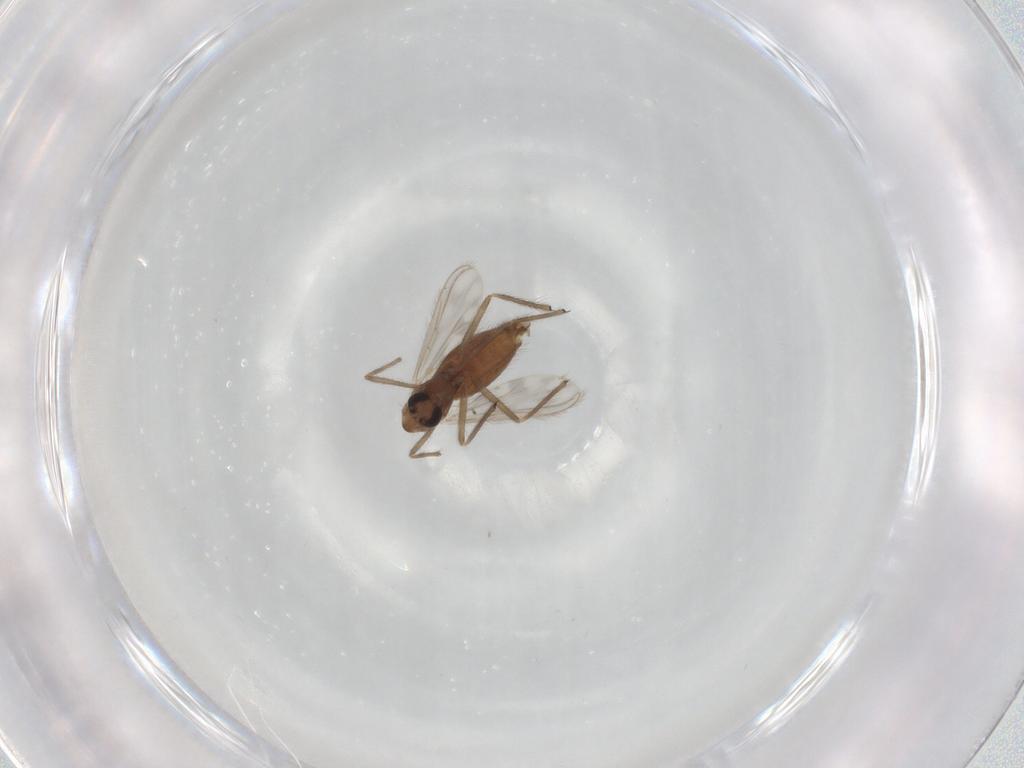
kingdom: Animalia
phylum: Arthropoda
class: Insecta
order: Diptera
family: Chironomidae
